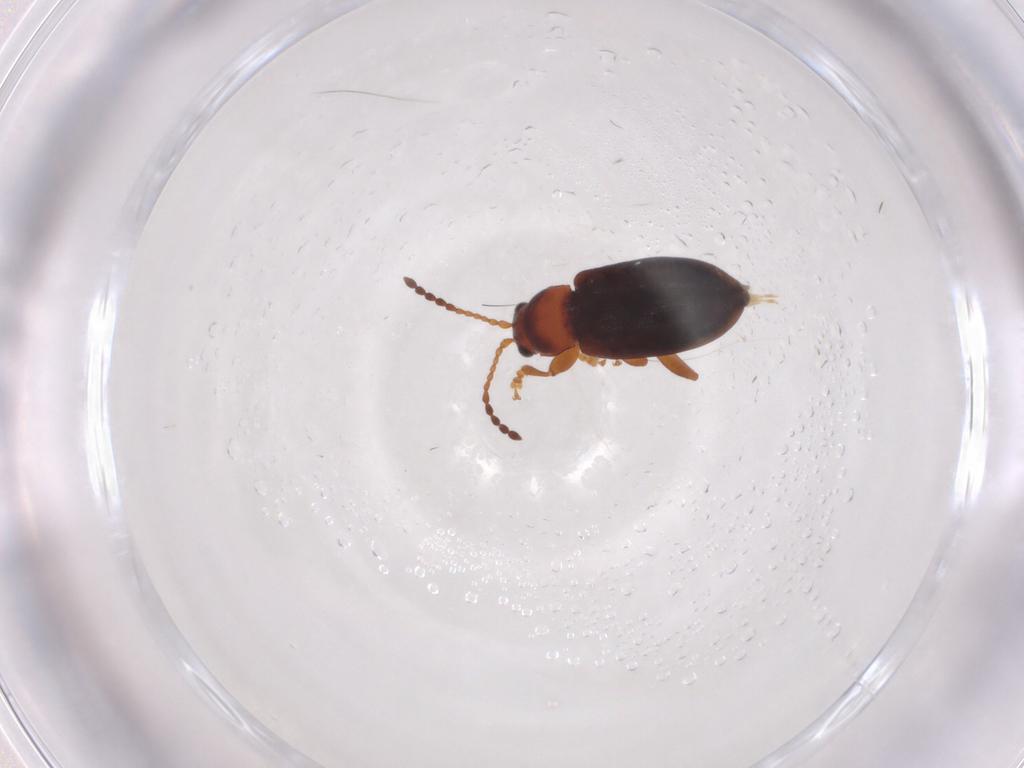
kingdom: Animalia
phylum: Arthropoda
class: Insecta
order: Coleoptera
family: Chrysomelidae
